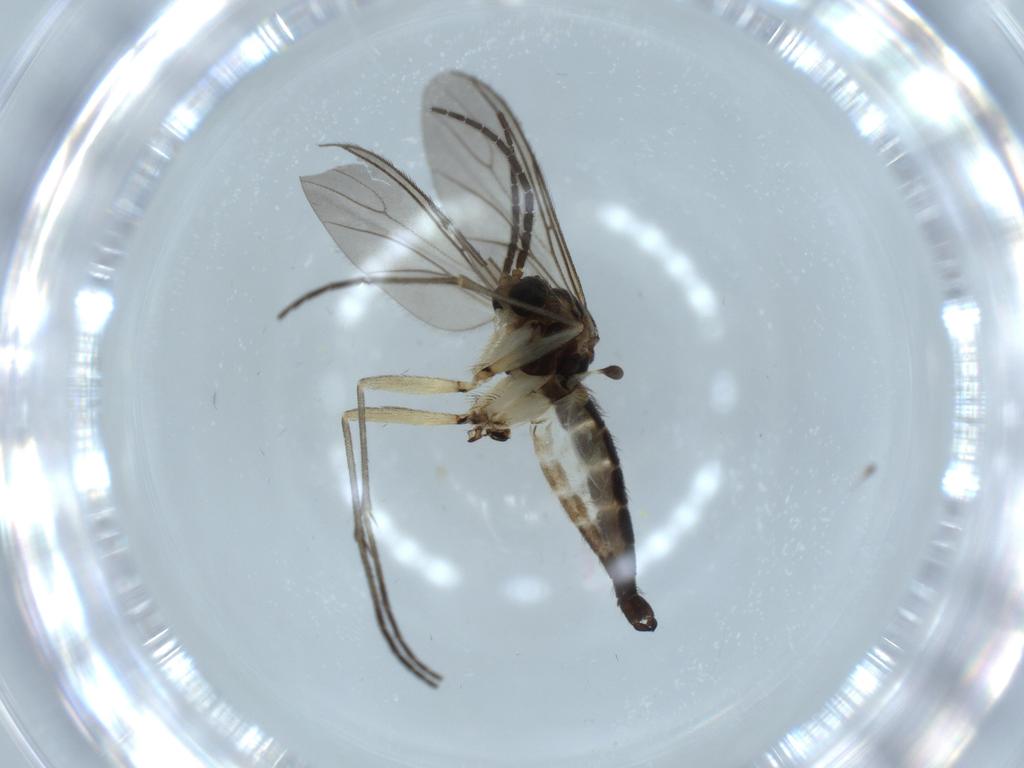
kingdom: Animalia
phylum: Arthropoda
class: Insecta
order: Diptera
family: Sciaridae
